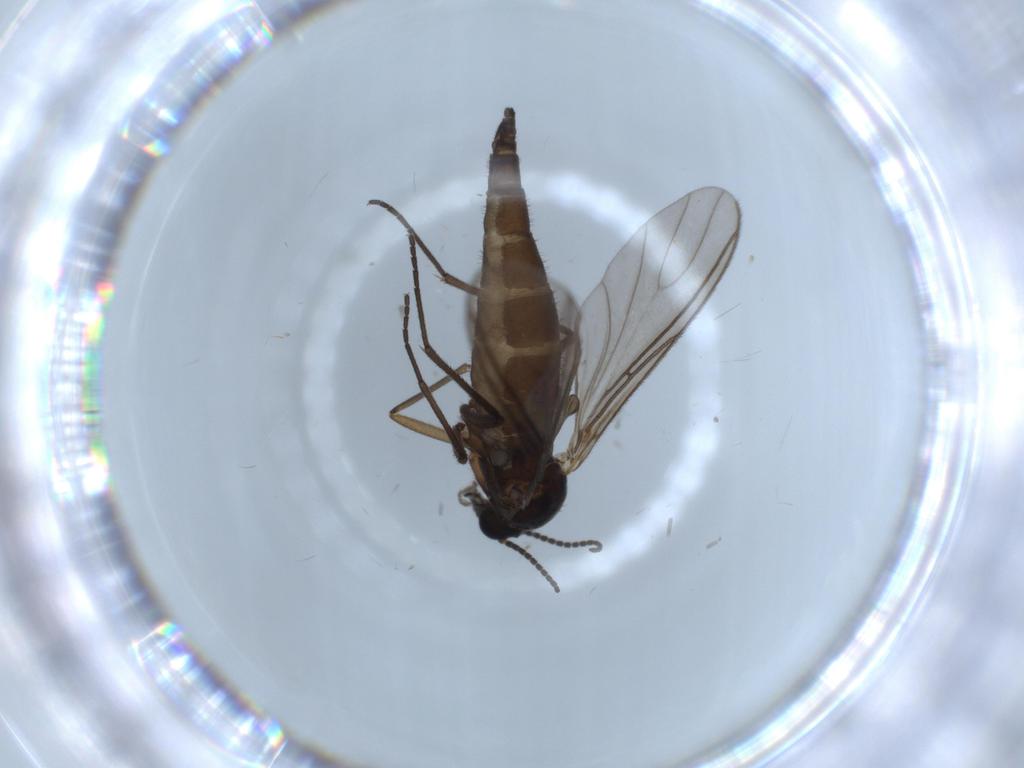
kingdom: Animalia
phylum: Arthropoda
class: Insecta
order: Diptera
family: Sciaridae
